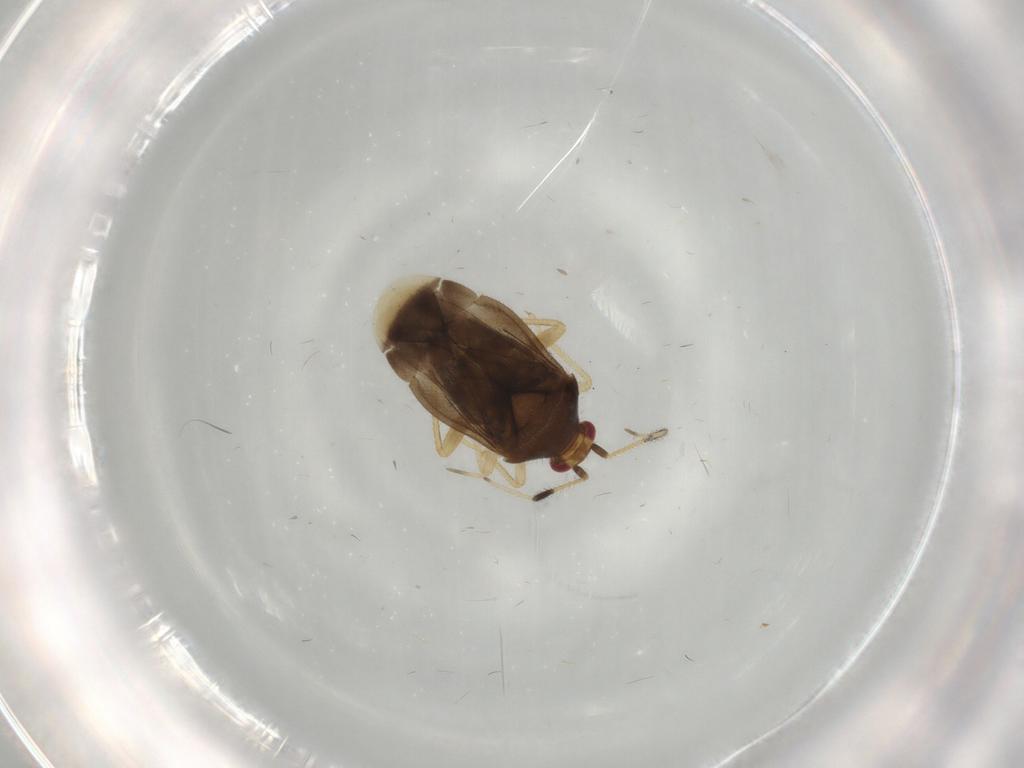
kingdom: Animalia
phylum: Arthropoda
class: Insecta
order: Hemiptera
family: Miridae
